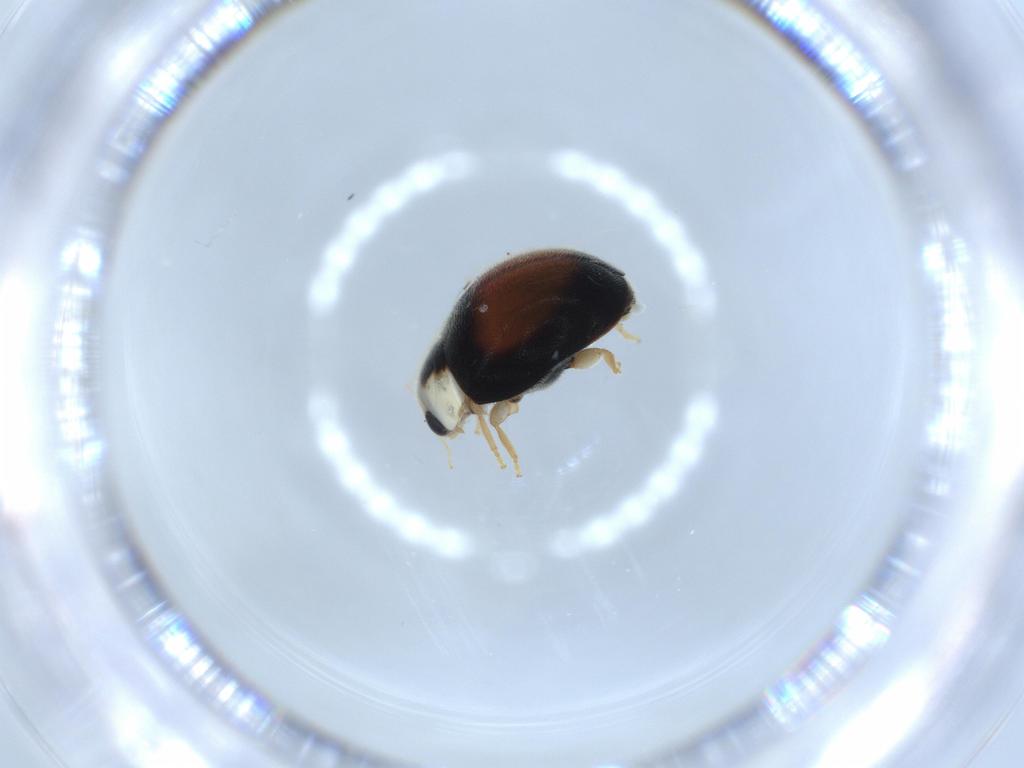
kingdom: Animalia
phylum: Arthropoda
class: Insecta
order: Coleoptera
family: Coccinellidae
